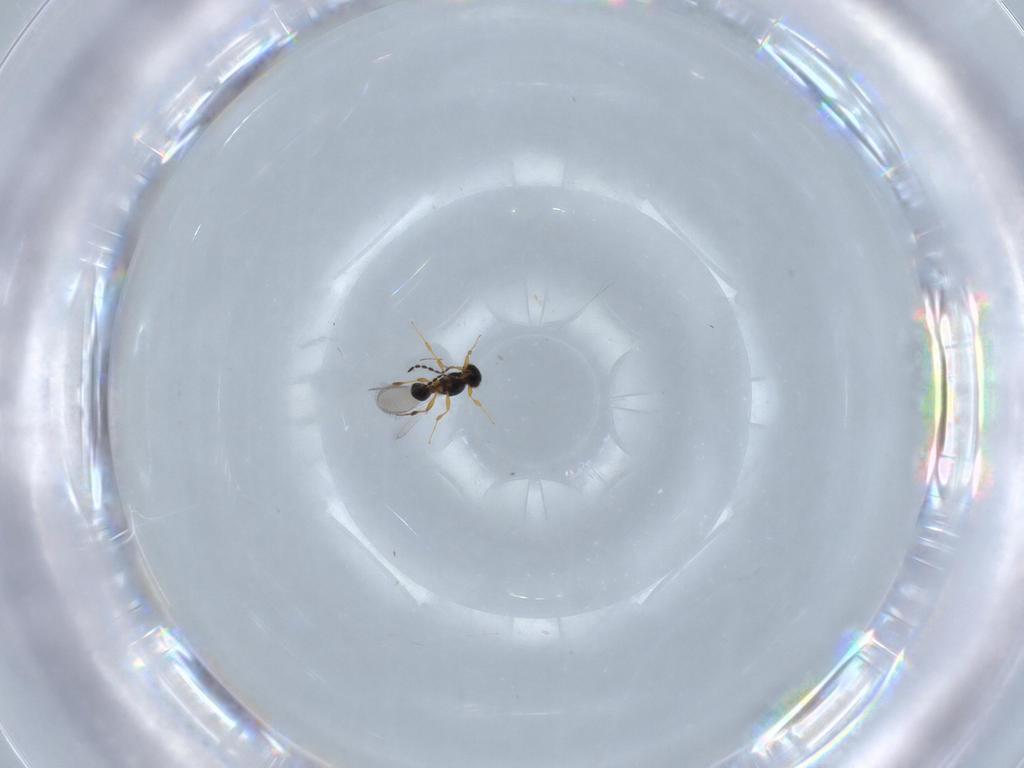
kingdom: Animalia
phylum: Arthropoda
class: Insecta
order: Hymenoptera
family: Platygastridae
